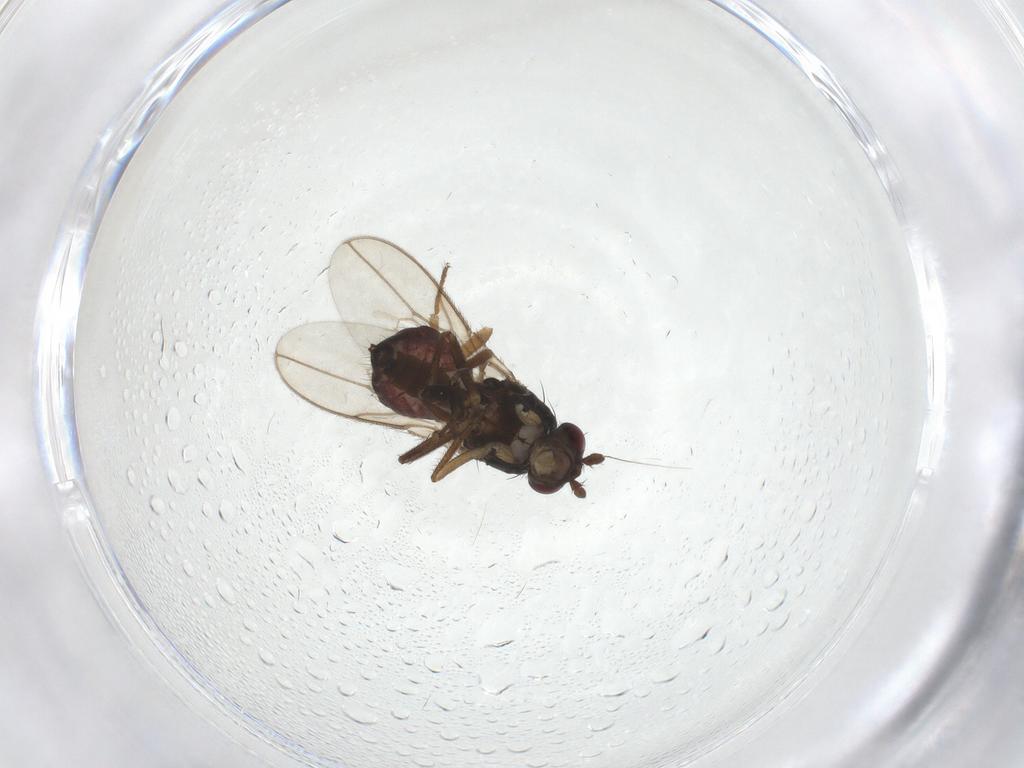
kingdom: Animalia
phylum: Arthropoda
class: Insecta
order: Diptera
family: Sphaeroceridae
